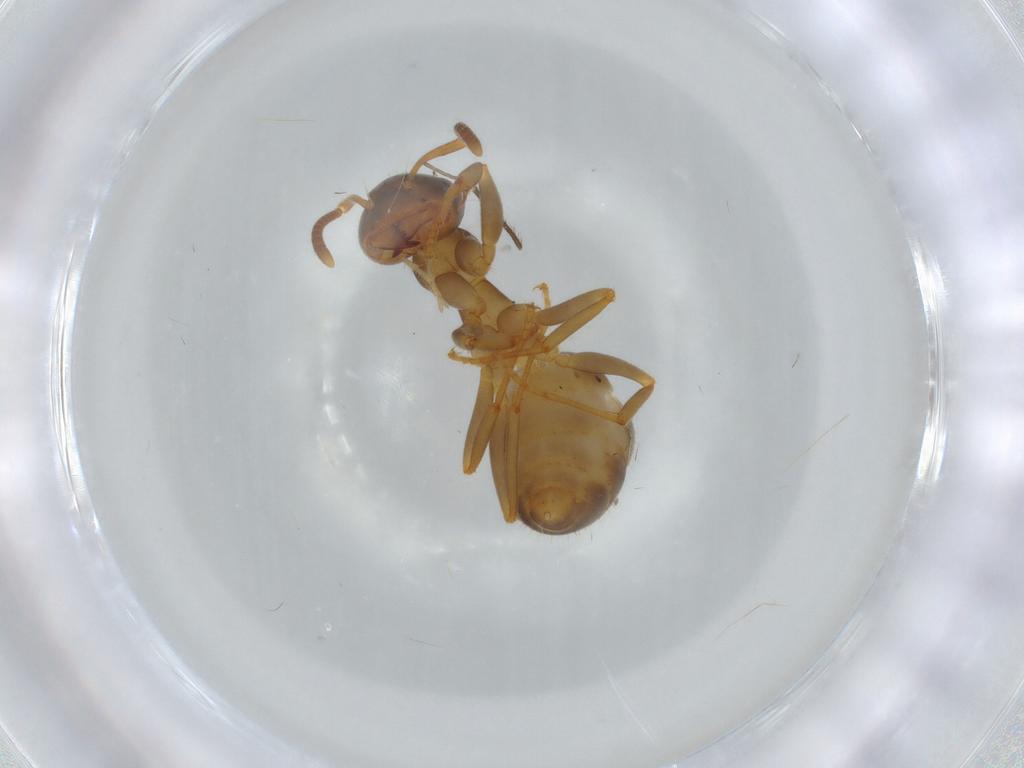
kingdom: Animalia
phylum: Arthropoda
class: Insecta
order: Hymenoptera
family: Formicidae
